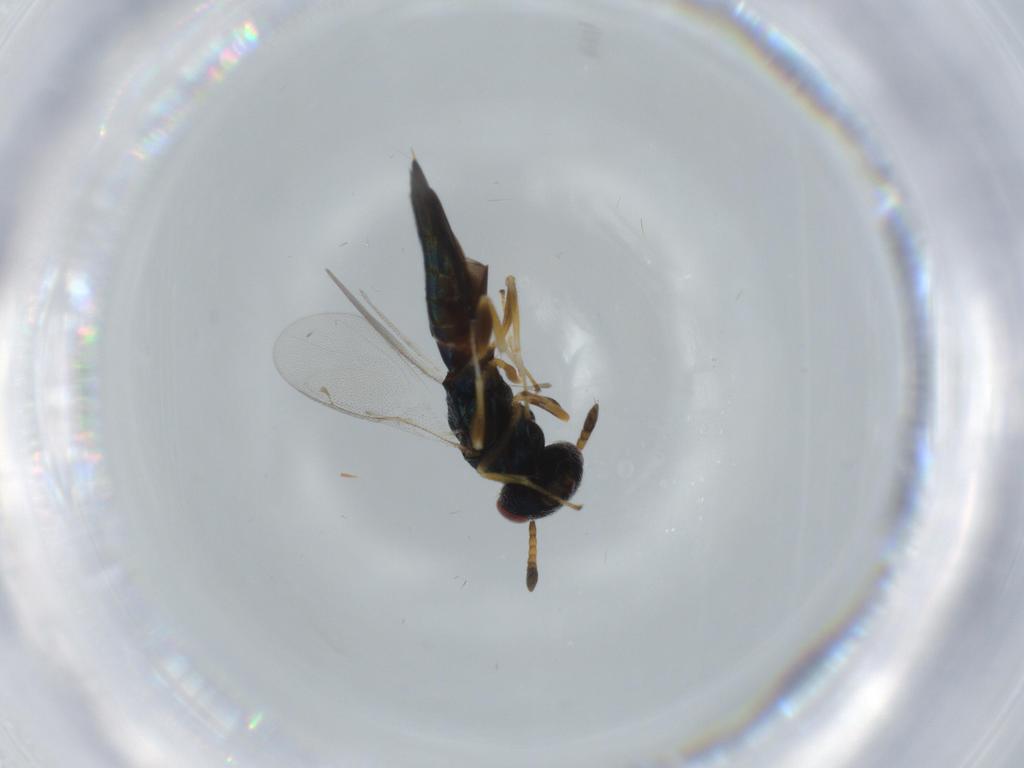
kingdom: Animalia
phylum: Arthropoda
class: Insecta
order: Hymenoptera
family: Pteromalidae
